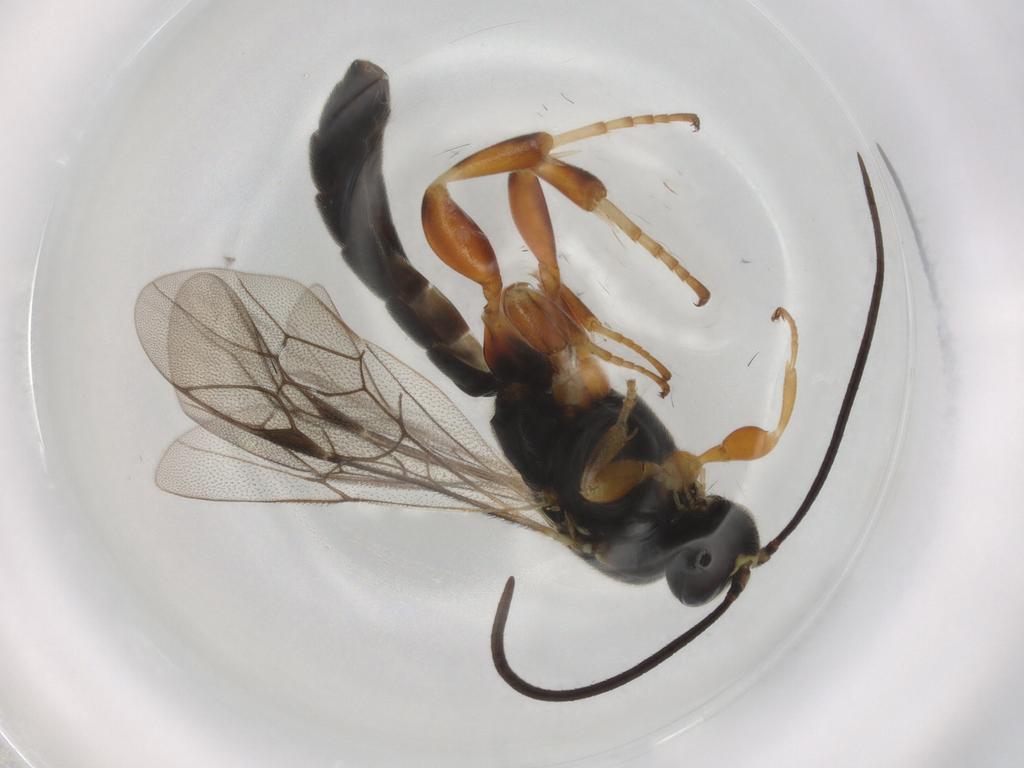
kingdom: Animalia
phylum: Arthropoda
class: Insecta
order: Hymenoptera
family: Ichneumonidae
